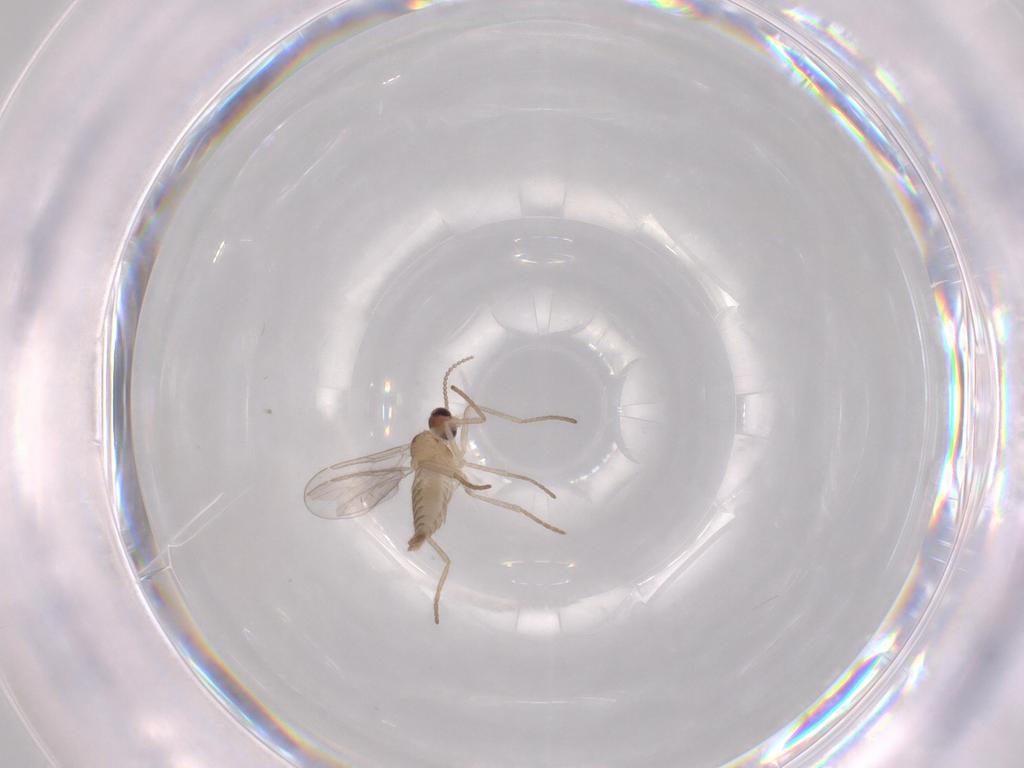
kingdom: Animalia
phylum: Arthropoda
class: Insecta
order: Diptera
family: Cecidomyiidae
